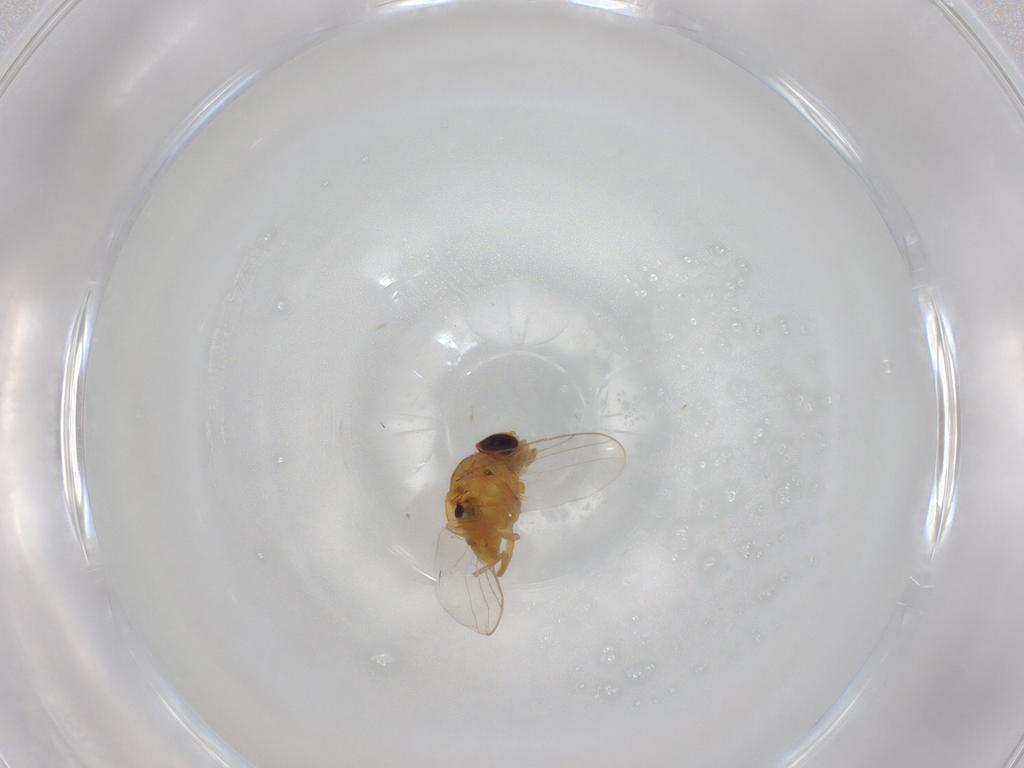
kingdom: Animalia
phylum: Arthropoda
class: Insecta
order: Diptera
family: Chloropidae
